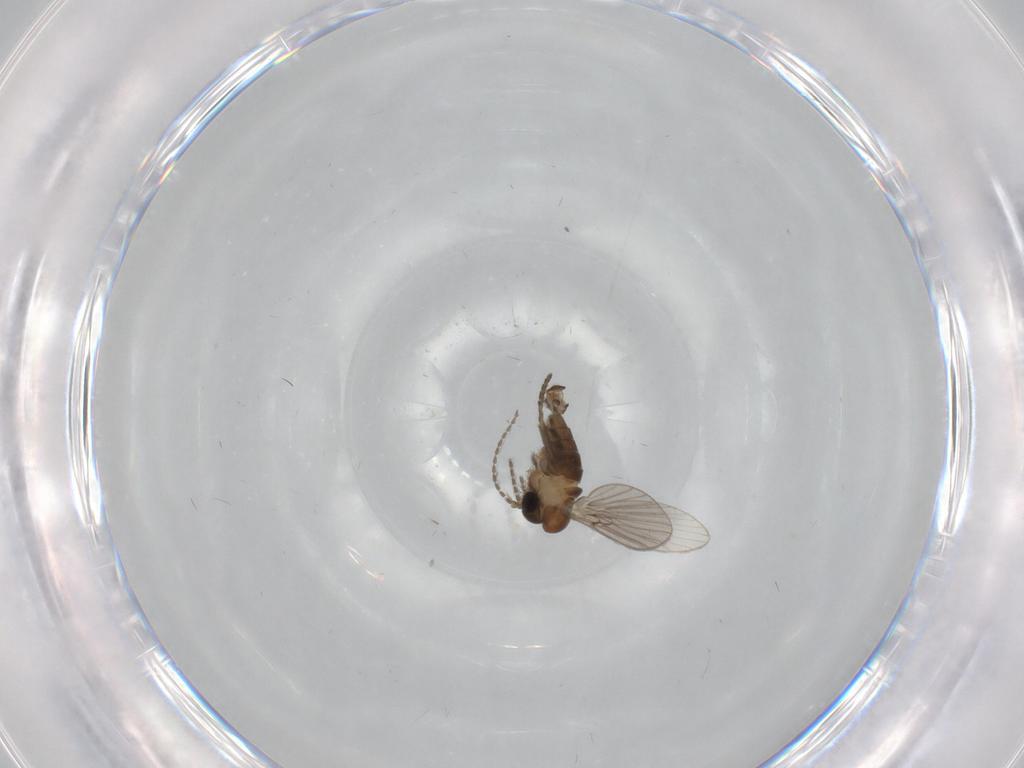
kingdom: Animalia
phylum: Arthropoda
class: Insecta
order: Diptera
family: Psychodidae
